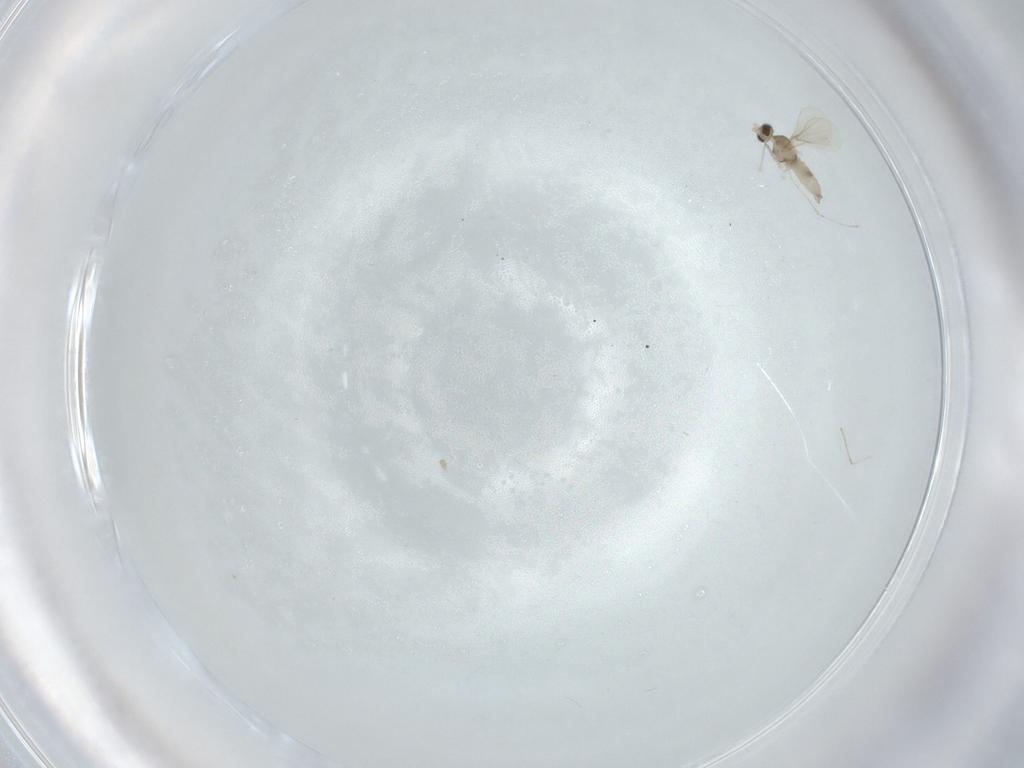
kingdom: Animalia
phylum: Arthropoda
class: Insecta
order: Diptera
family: Cecidomyiidae
